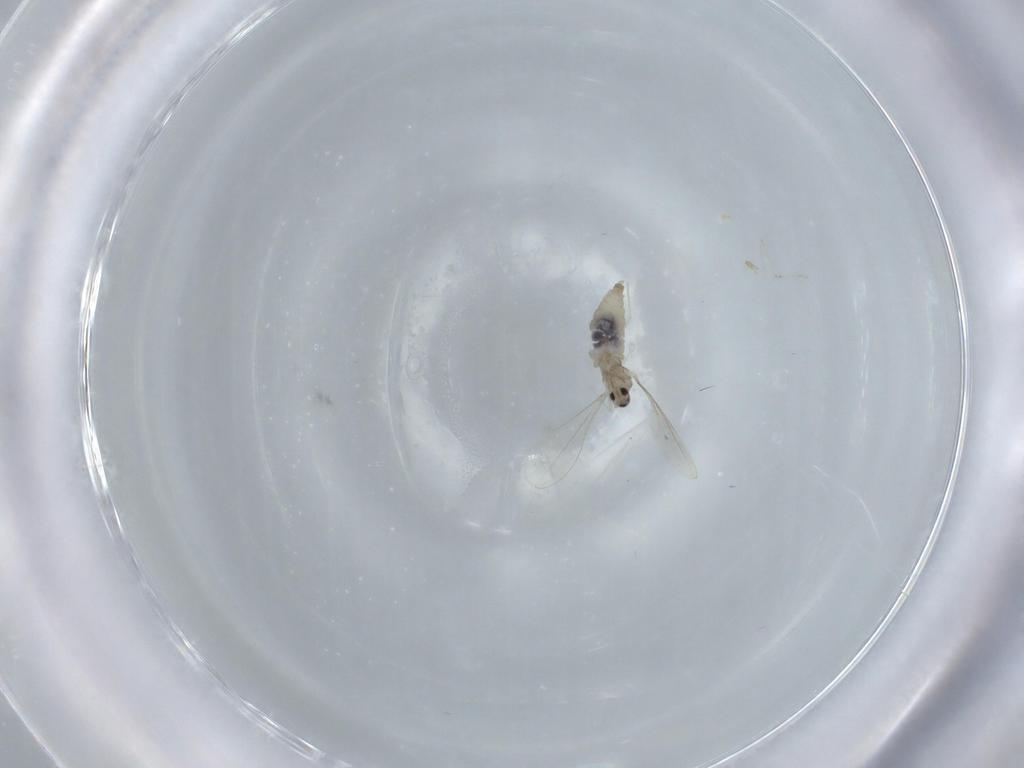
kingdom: Animalia
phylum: Arthropoda
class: Insecta
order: Diptera
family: Cecidomyiidae
